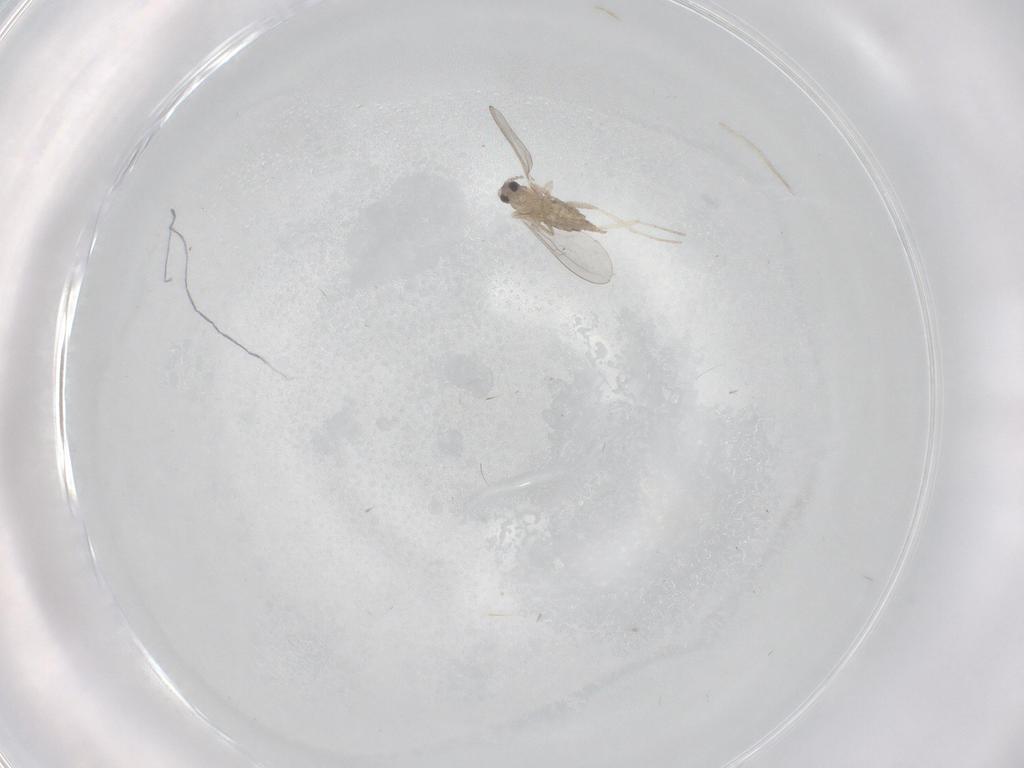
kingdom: Animalia
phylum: Arthropoda
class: Insecta
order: Diptera
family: Cecidomyiidae
